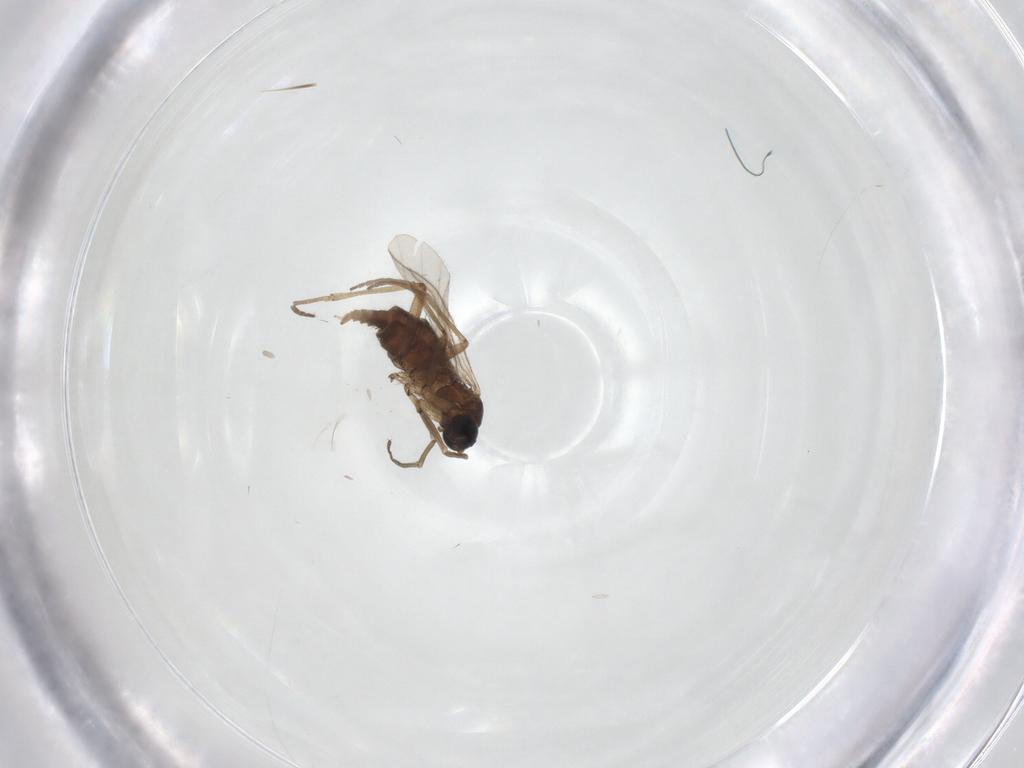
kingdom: Animalia
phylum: Arthropoda
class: Insecta
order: Diptera
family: Sciaridae
